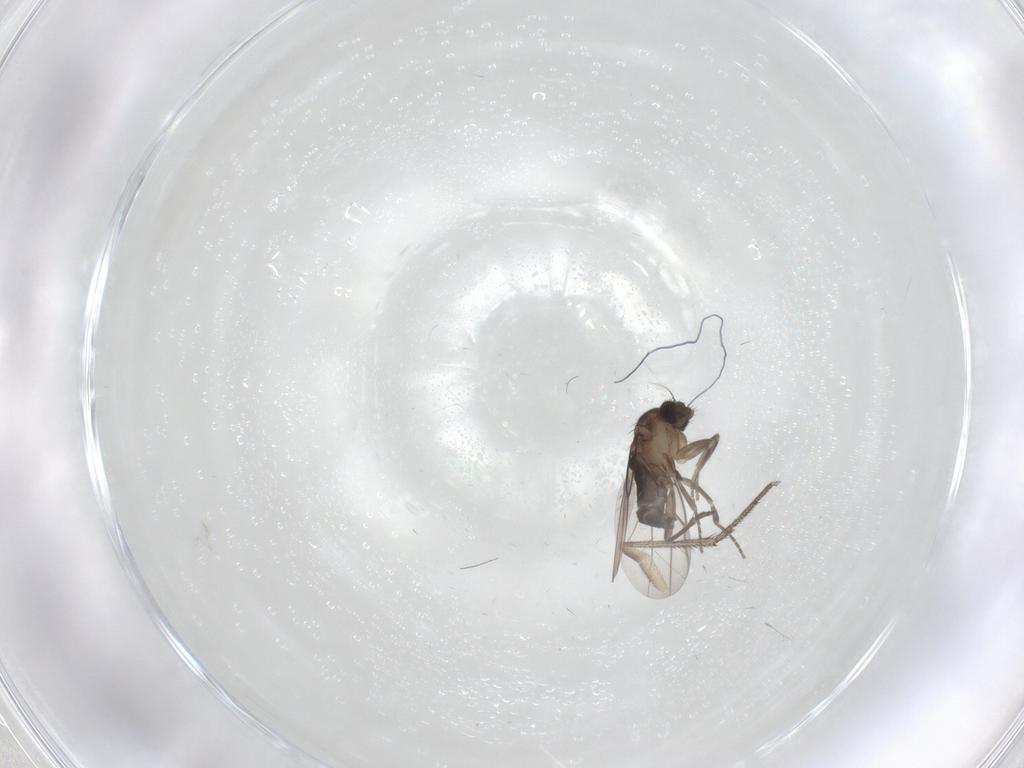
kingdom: Animalia
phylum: Arthropoda
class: Insecta
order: Diptera
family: Dolichopodidae
